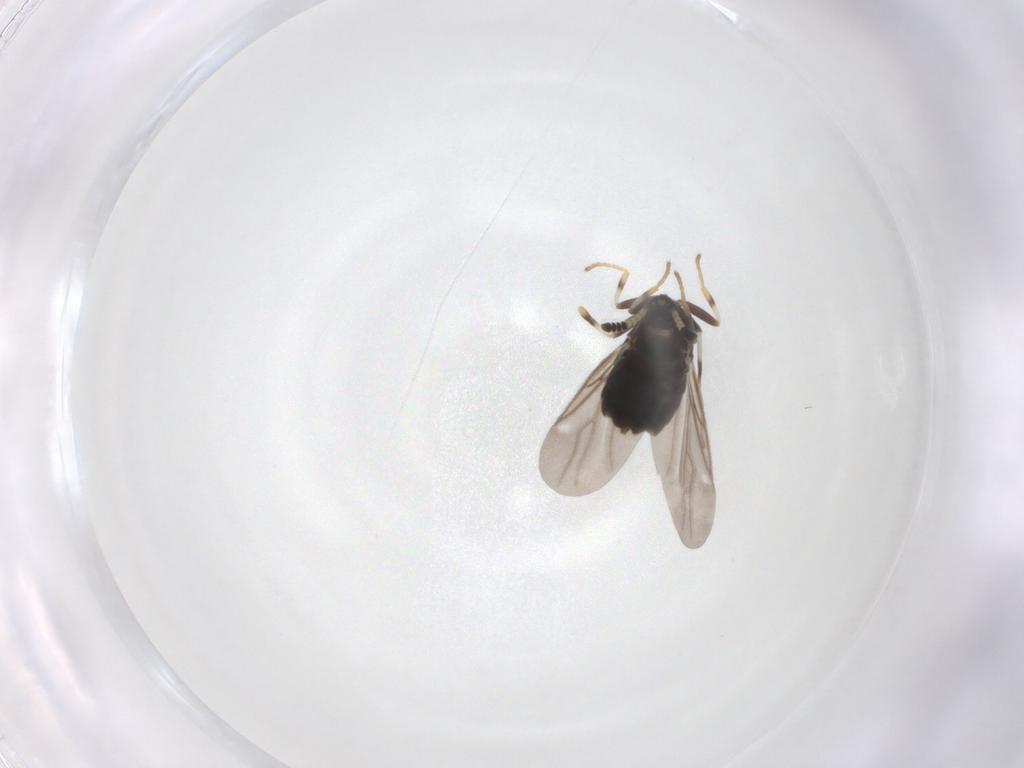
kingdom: Animalia
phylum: Arthropoda
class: Insecta
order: Diptera
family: Scatopsidae
